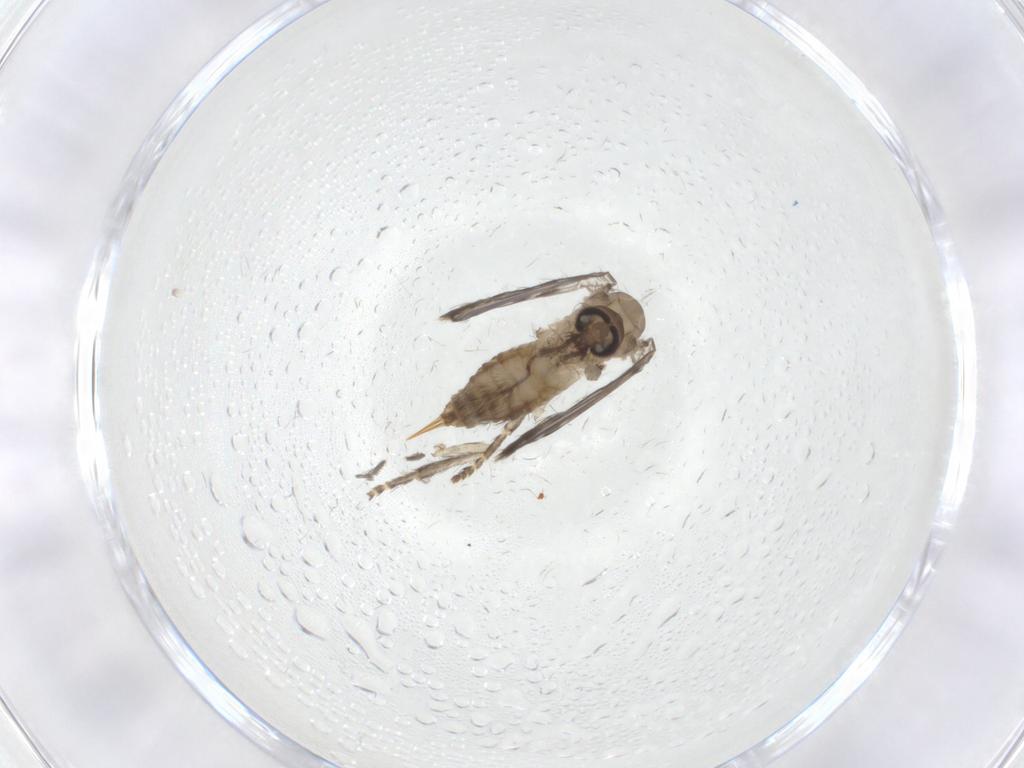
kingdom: Animalia
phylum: Arthropoda
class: Insecta
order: Diptera
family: Psychodidae
